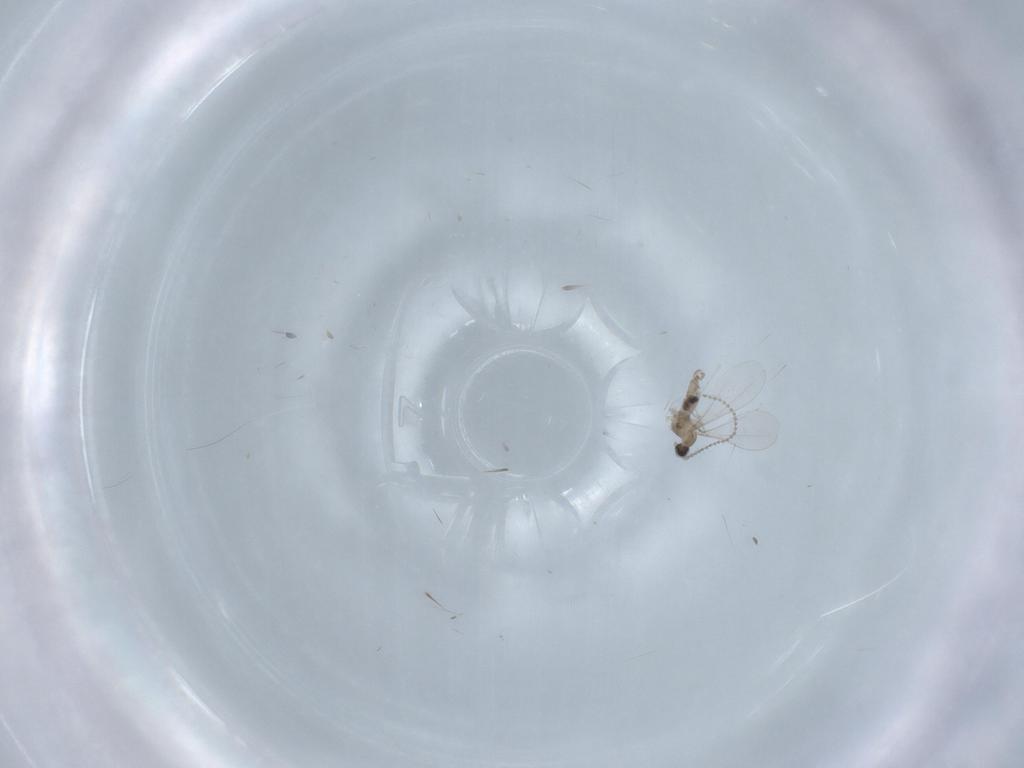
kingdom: Animalia
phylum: Arthropoda
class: Insecta
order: Diptera
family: Cecidomyiidae
